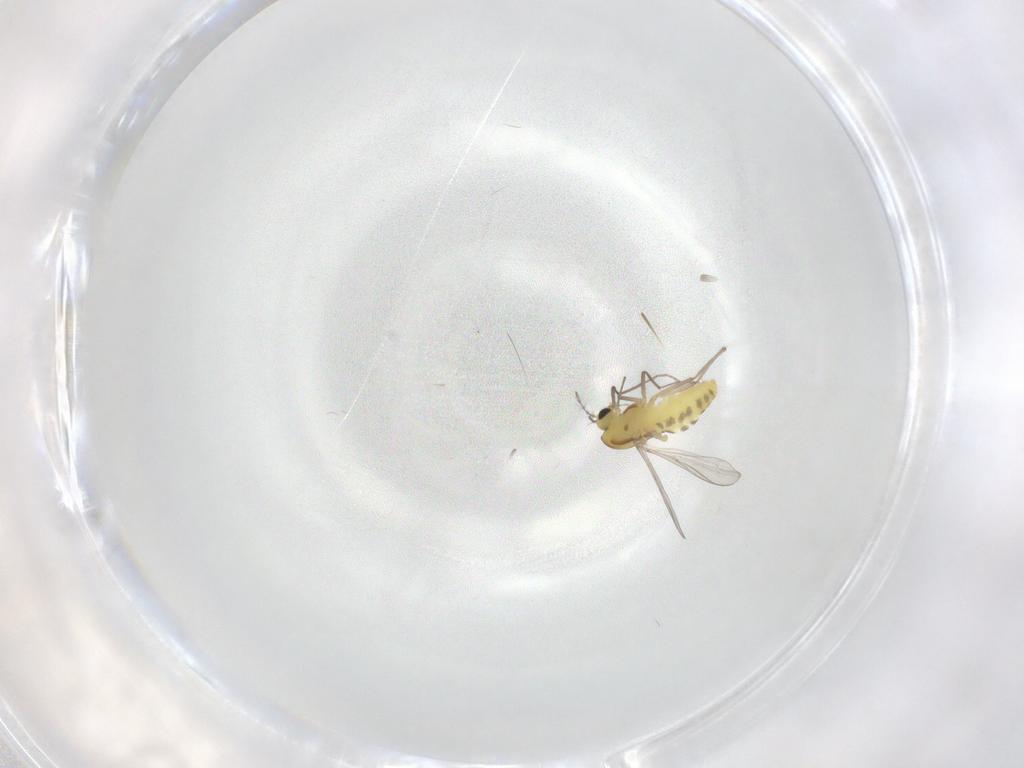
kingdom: Animalia
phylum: Arthropoda
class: Insecta
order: Diptera
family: Chironomidae
